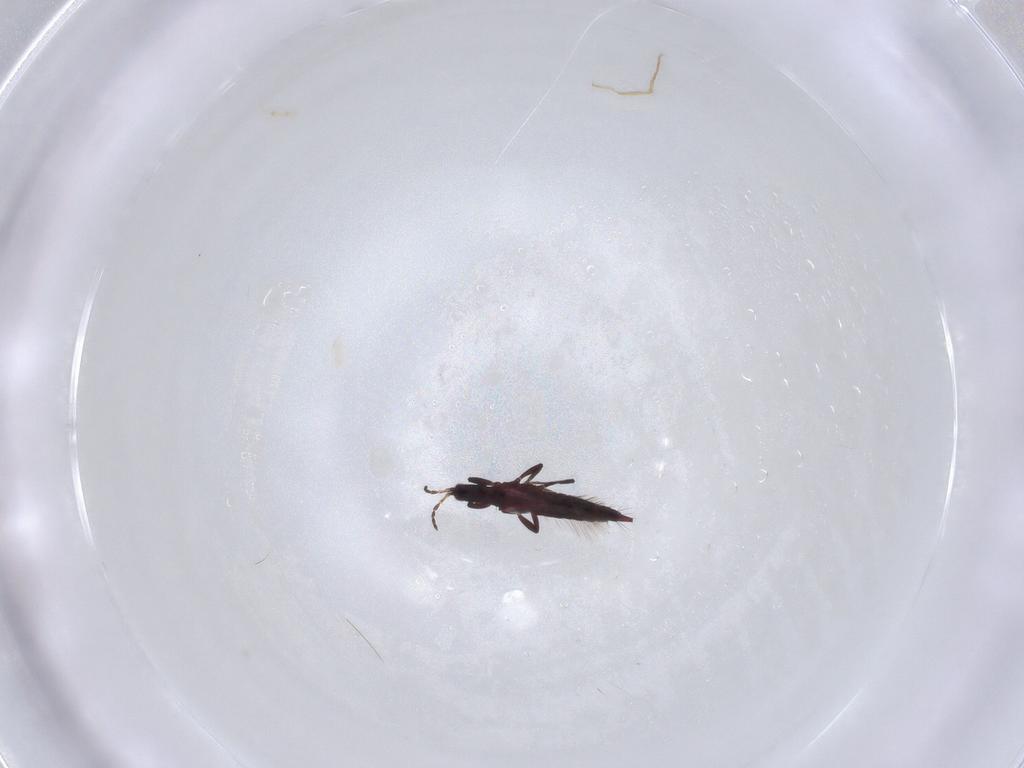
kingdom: Animalia
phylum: Arthropoda
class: Insecta
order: Thysanoptera
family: Phlaeothripidae
